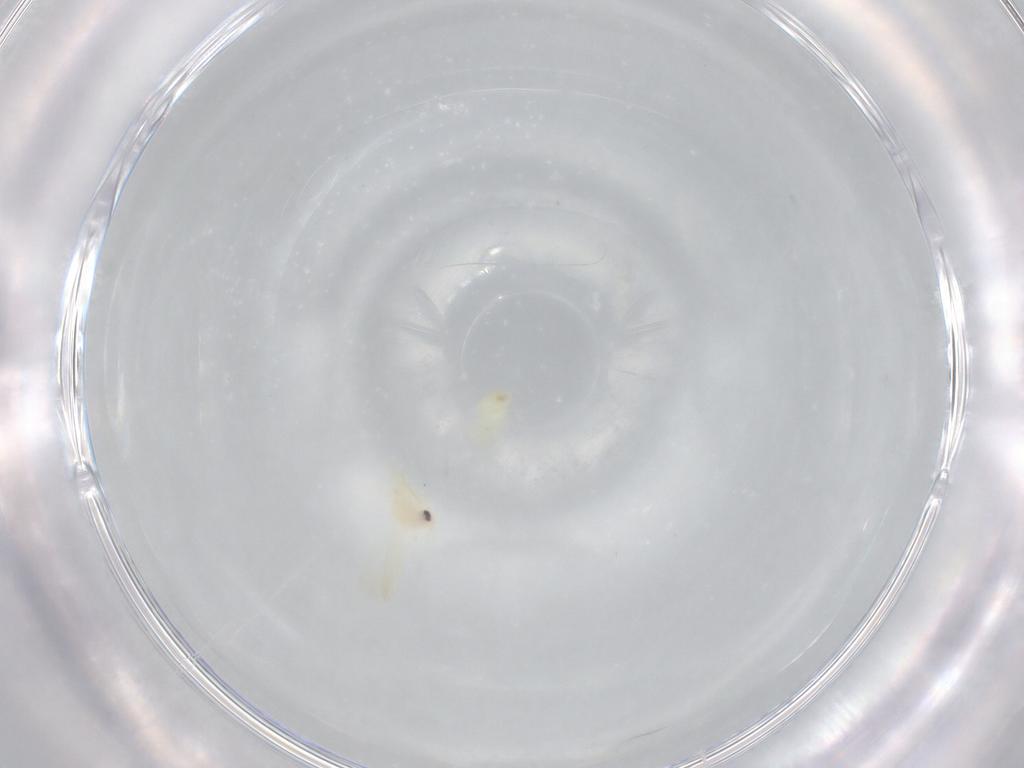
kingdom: Animalia
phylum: Arthropoda
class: Insecta
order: Hemiptera
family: Aleyrodidae
